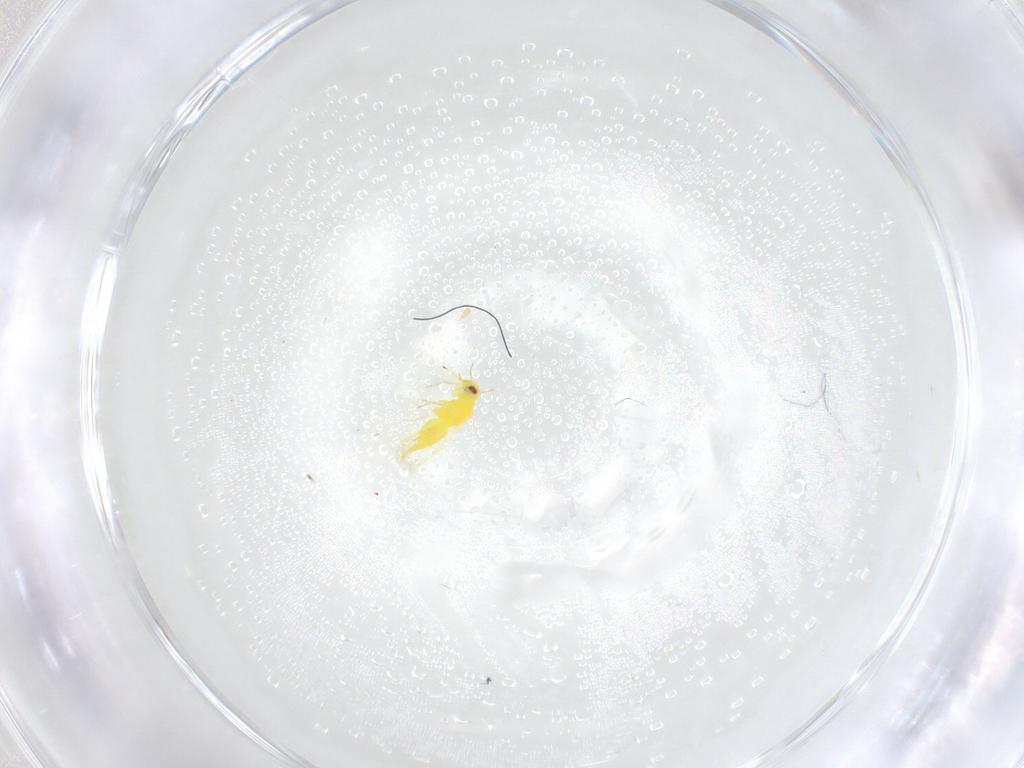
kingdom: Animalia
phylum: Arthropoda
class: Insecta
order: Hemiptera
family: Aleyrodidae
